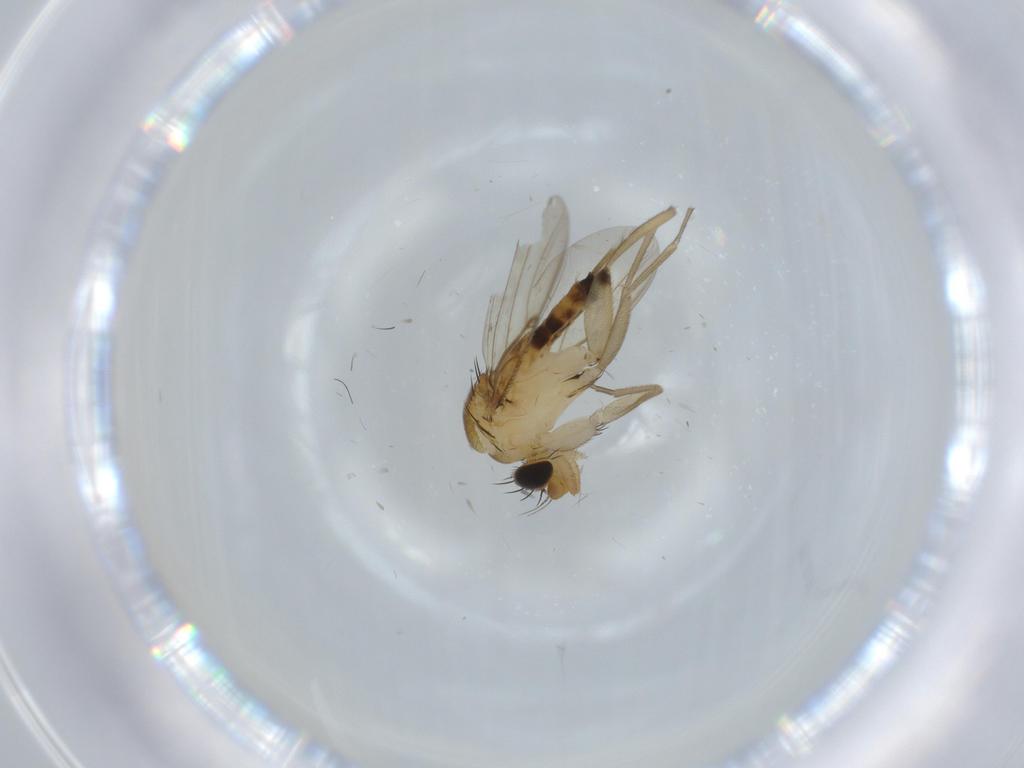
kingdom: Animalia
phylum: Arthropoda
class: Insecta
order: Diptera
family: Phoridae
